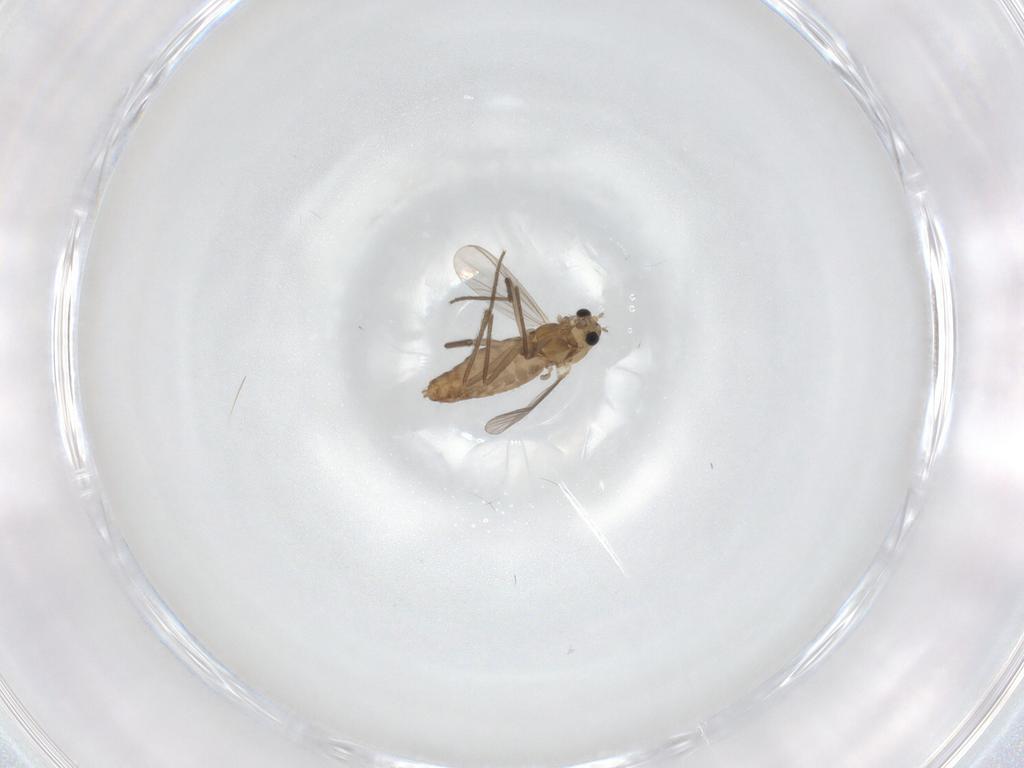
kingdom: Animalia
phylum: Arthropoda
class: Insecta
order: Diptera
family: Chironomidae
